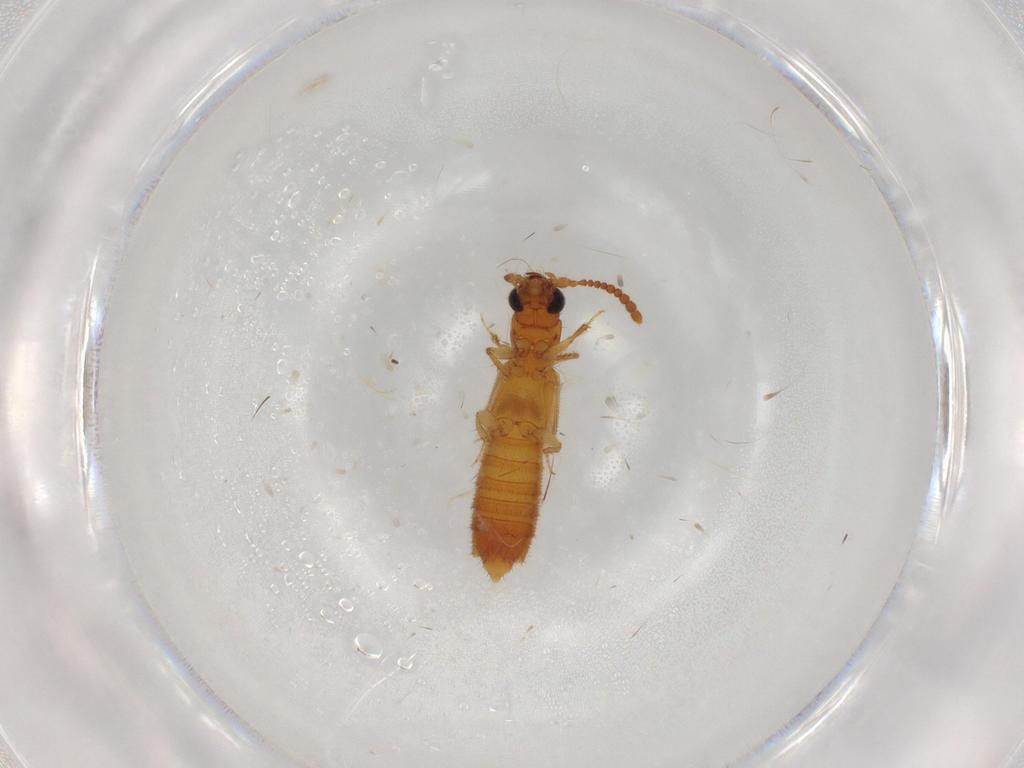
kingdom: Animalia
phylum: Arthropoda
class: Insecta
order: Coleoptera
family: Staphylinidae
